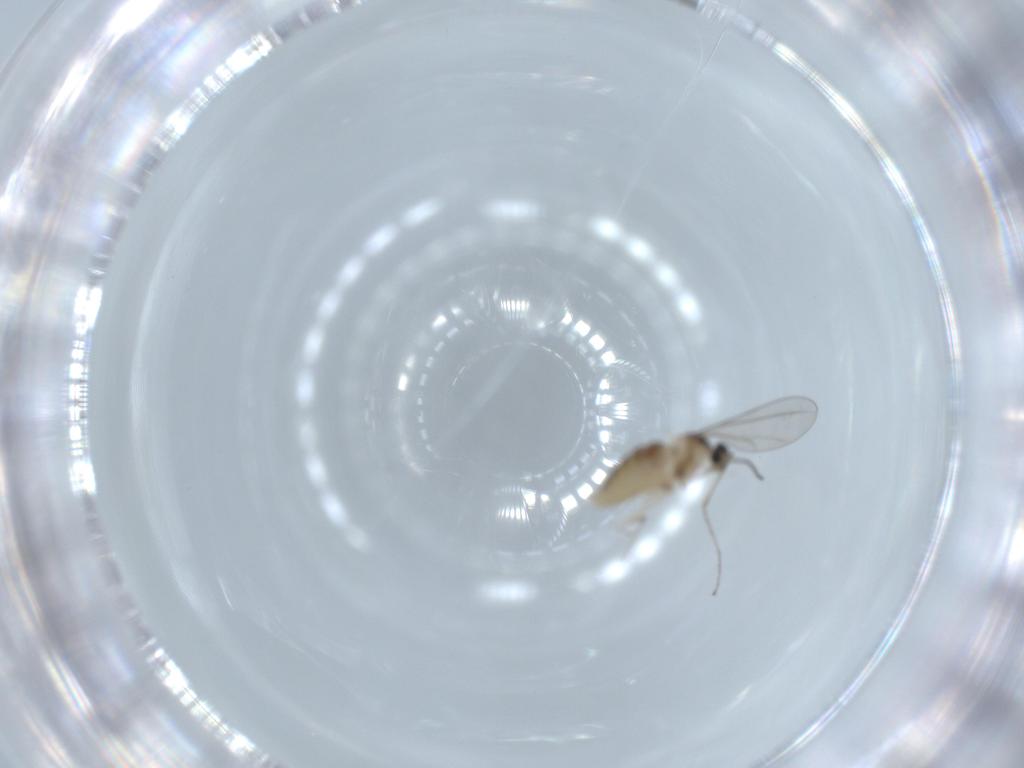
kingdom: Animalia
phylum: Arthropoda
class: Insecta
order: Diptera
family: Cecidomyiidae
